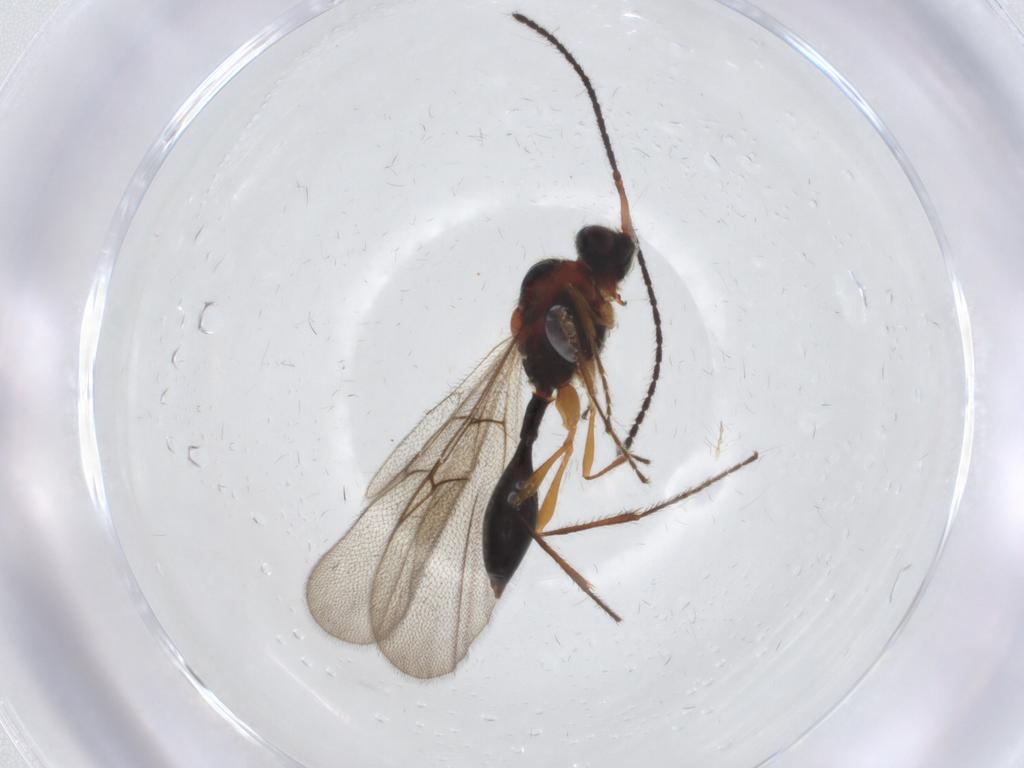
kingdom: Animalia
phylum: Arthropoda
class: Insecta
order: Hymenoptera
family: Diapriidae
